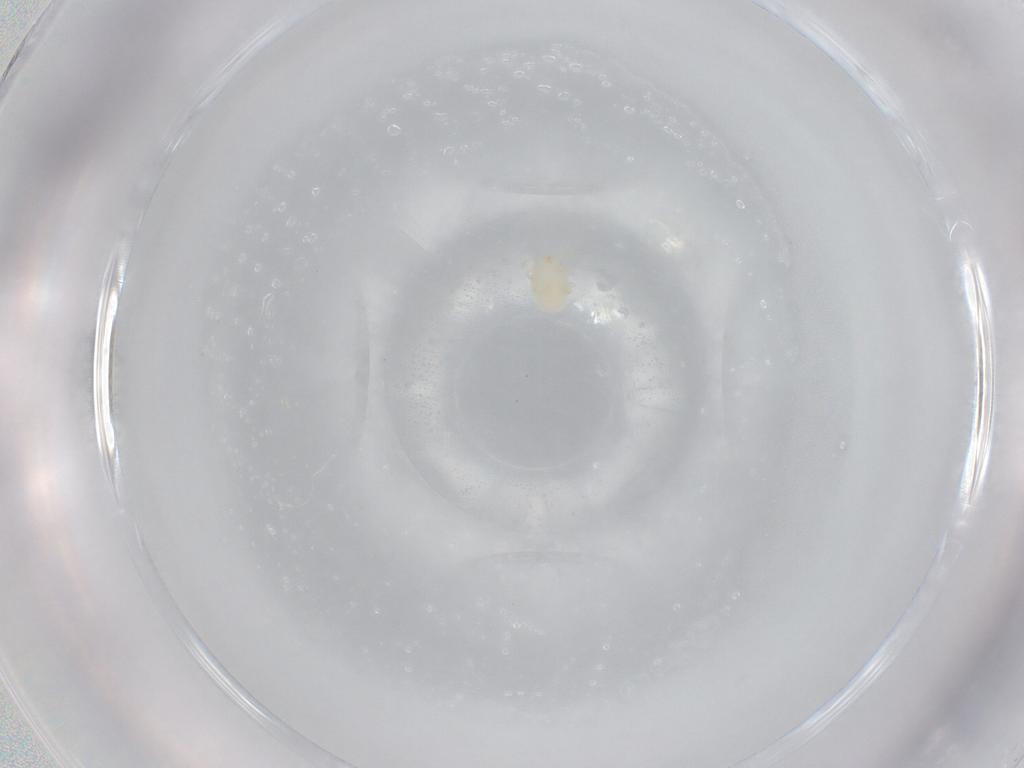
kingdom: Animalia
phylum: Arthropoda
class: Arachnida
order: Trombidiformes
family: Hydryphantidae
